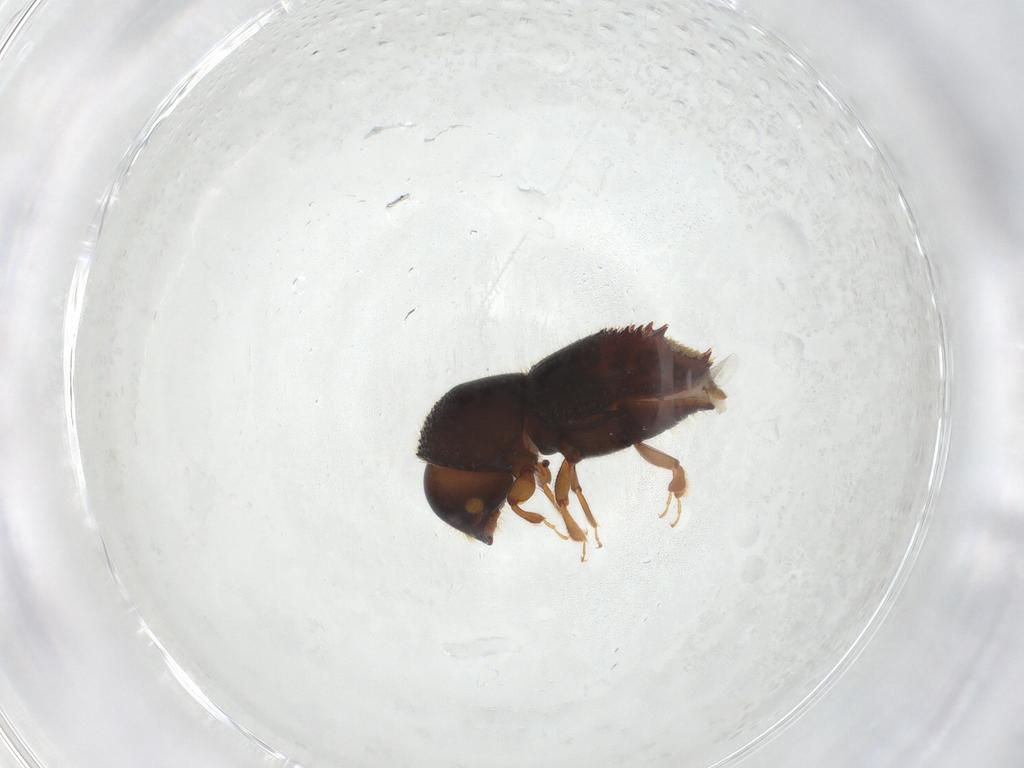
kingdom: Animalia
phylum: Arthropoda
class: Insecta
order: Coleoptera
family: Curculionidae
